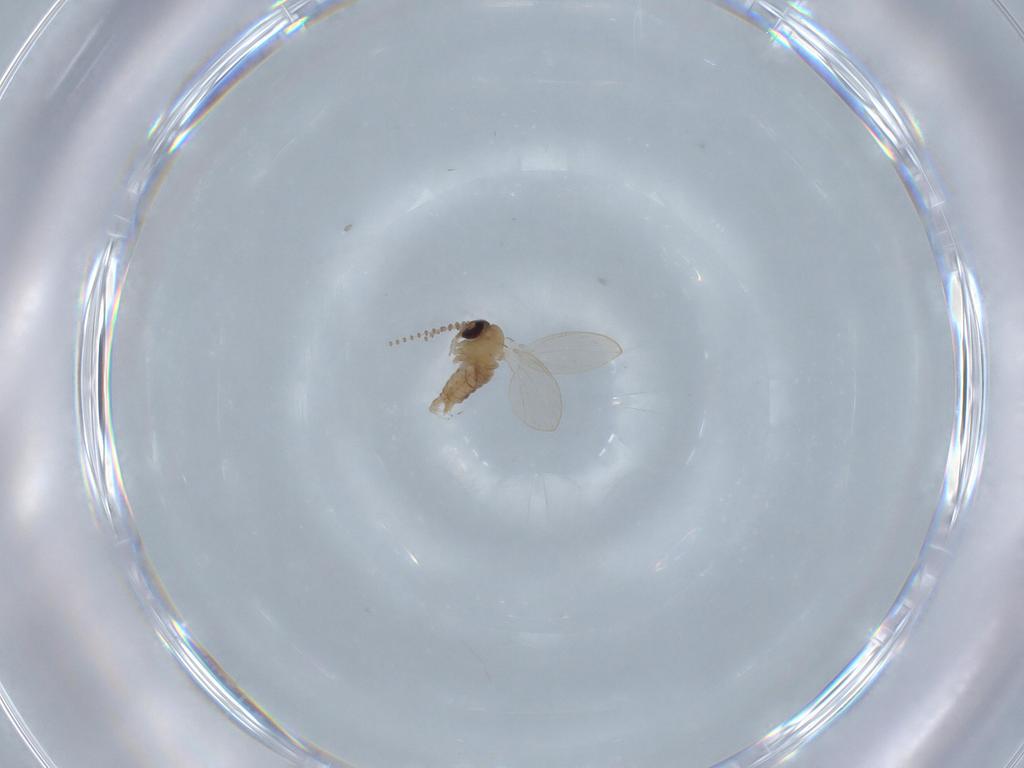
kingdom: Animalia
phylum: Arthropoda
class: Insecta
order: Diptera
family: Psychodidae
